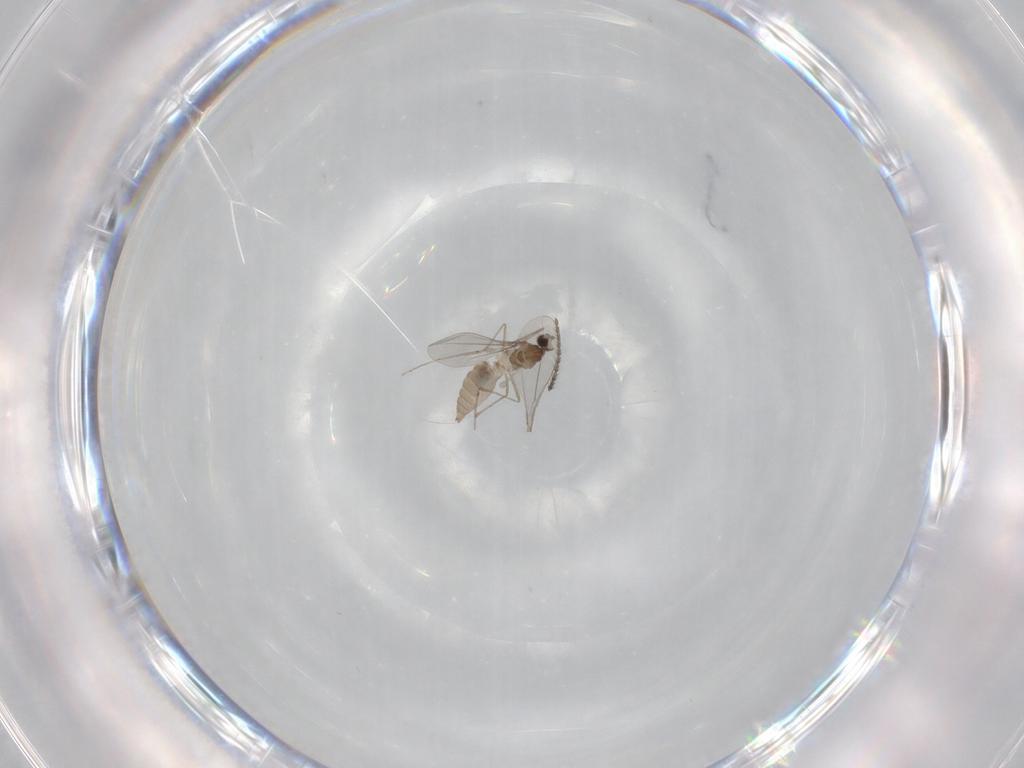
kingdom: Animalia
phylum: Arthropoda
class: Insecta
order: Diptera
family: Cecidomyiidae
